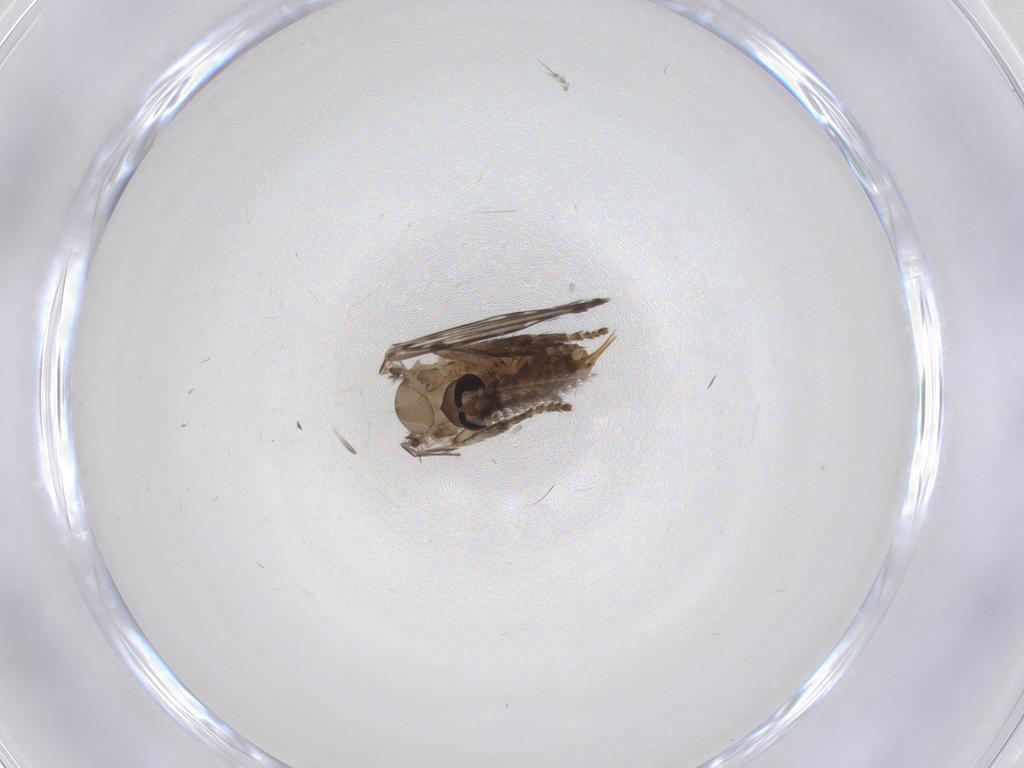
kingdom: Animalia
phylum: Arthropoda
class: Insecta
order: Diptera
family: Psychodidae
